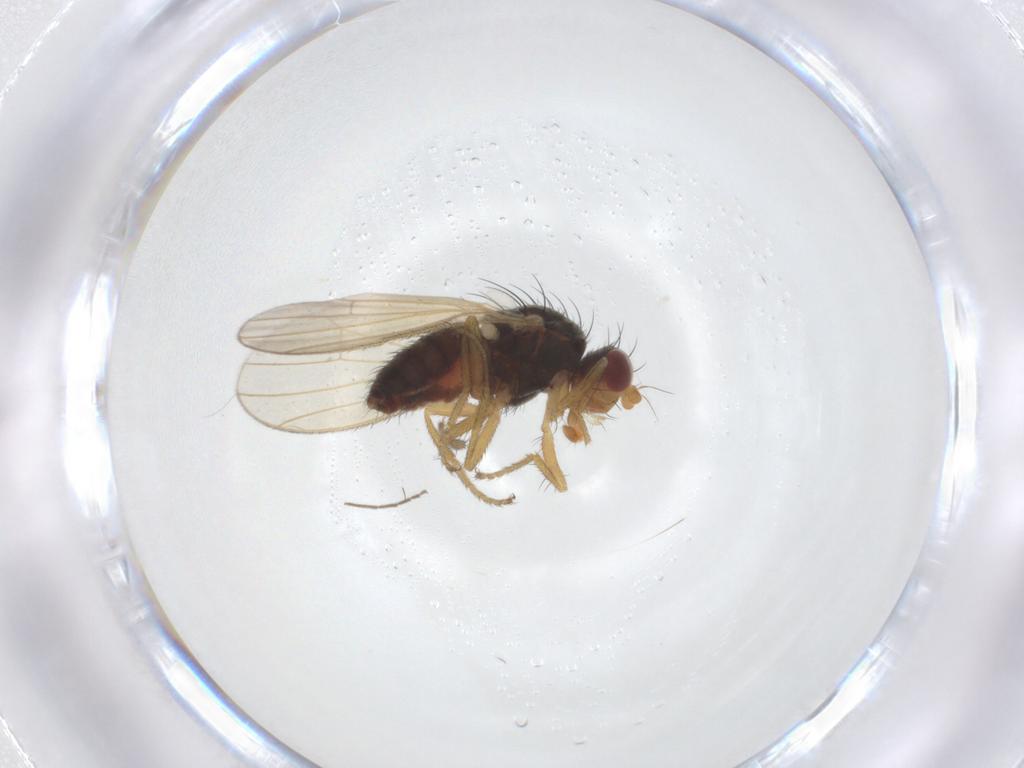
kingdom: Animalia
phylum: Arthropoda
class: Insecta
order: Diptera
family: Heleomyzidae
